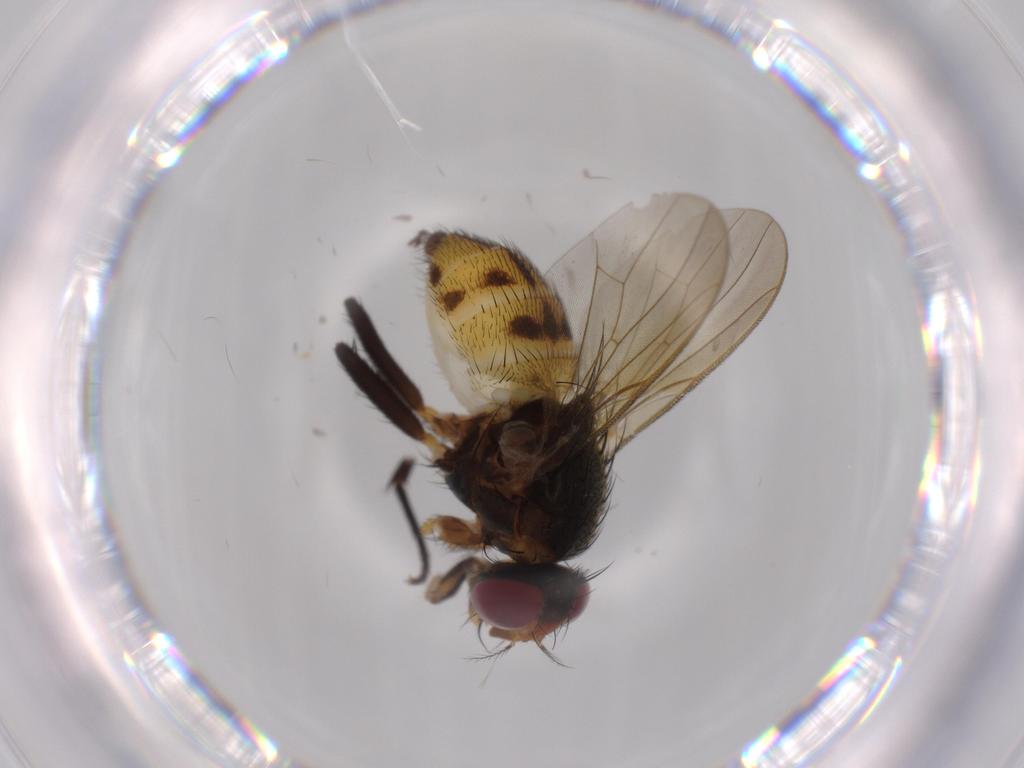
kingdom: Animalia
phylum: Arthropoda
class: Insecta
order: Diptera
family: Anthomyiidae
